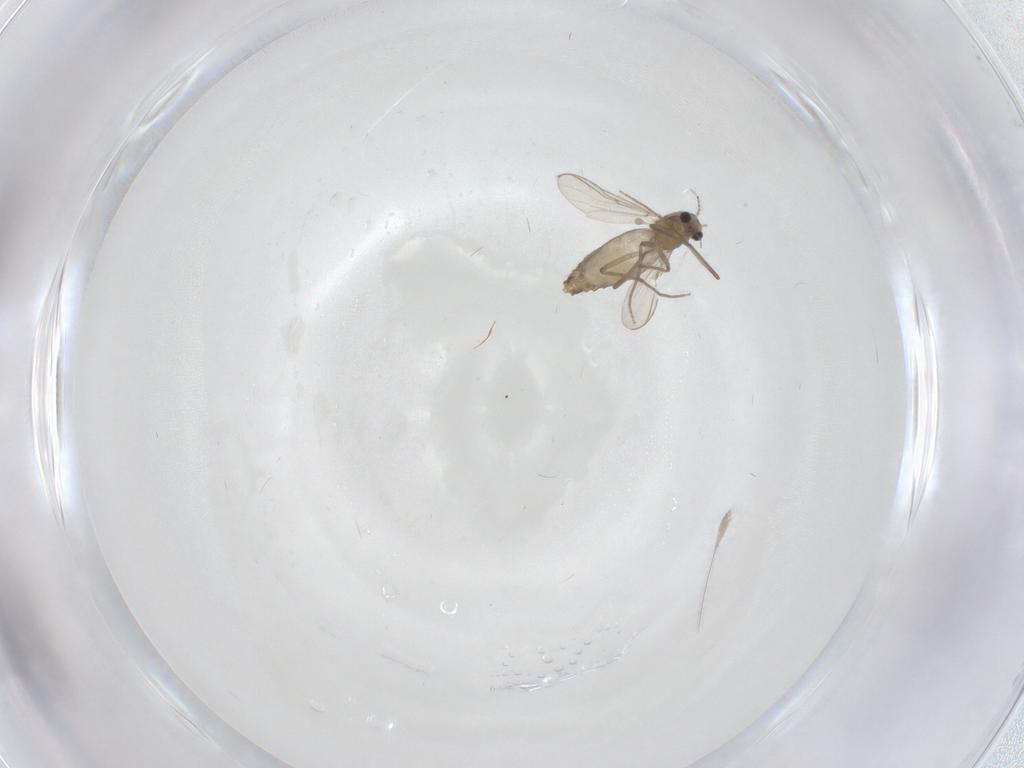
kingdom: Animalia
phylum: Arthropoda
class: Insecta
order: Diptera
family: Chironomidae
